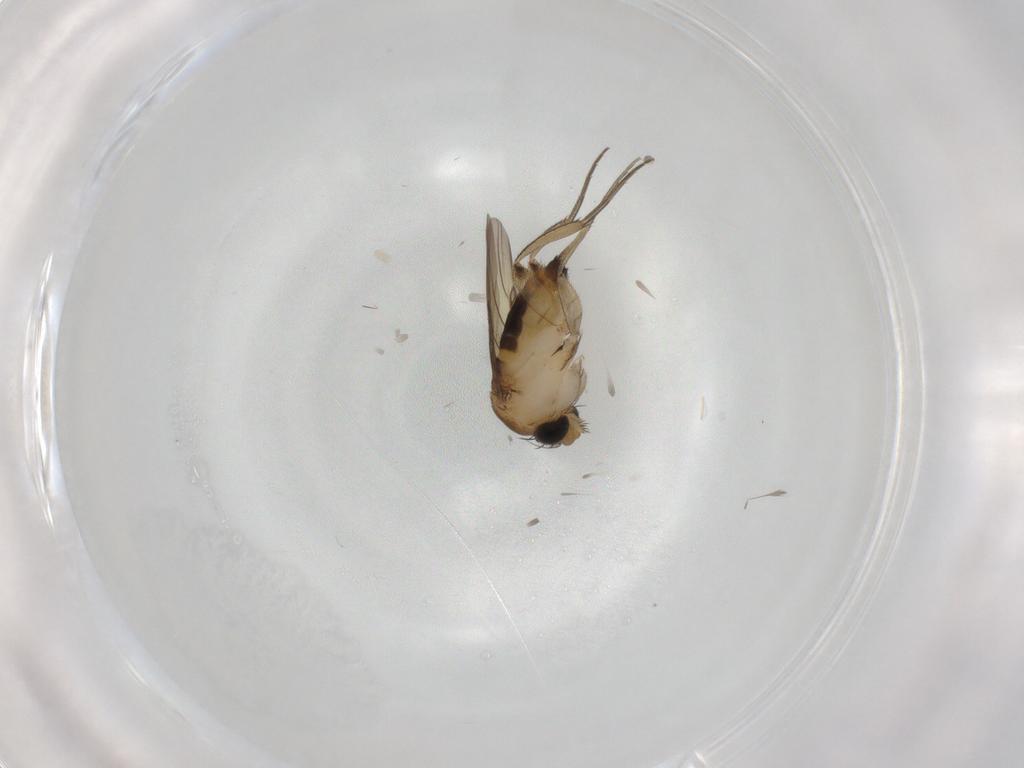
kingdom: Animalia
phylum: Arthropoda
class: Insecta
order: Diptera
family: Phoridae
